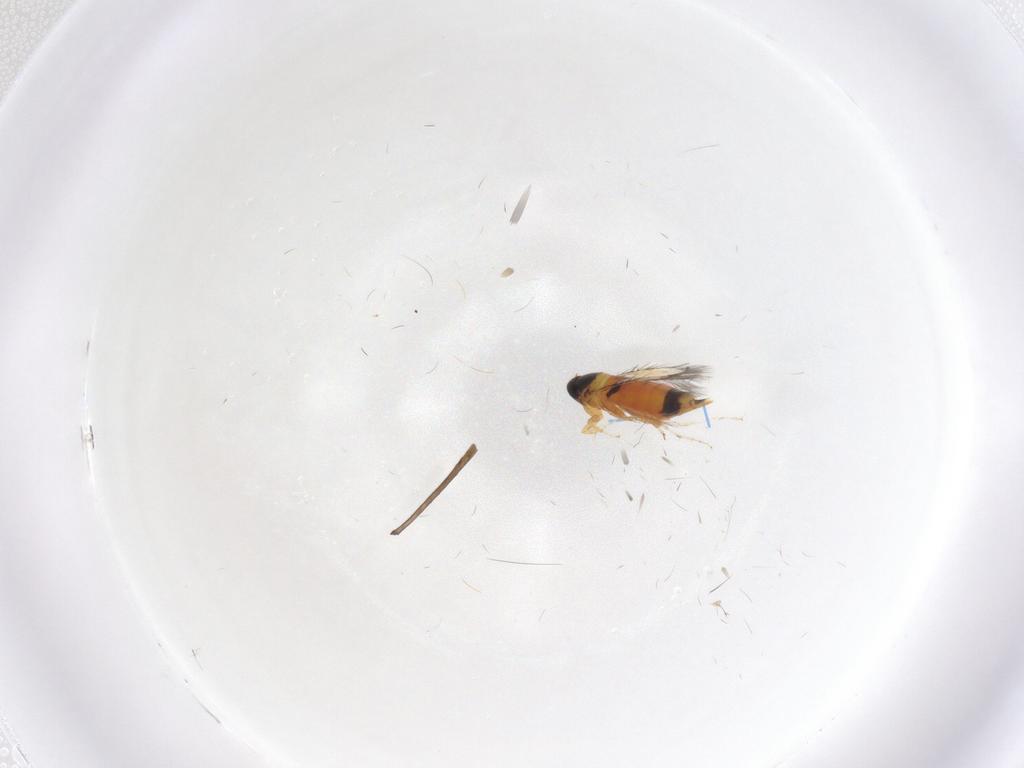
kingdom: Animalia
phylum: Arthropoda
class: Insecta
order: Hymenoptera
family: Signiphoridae
